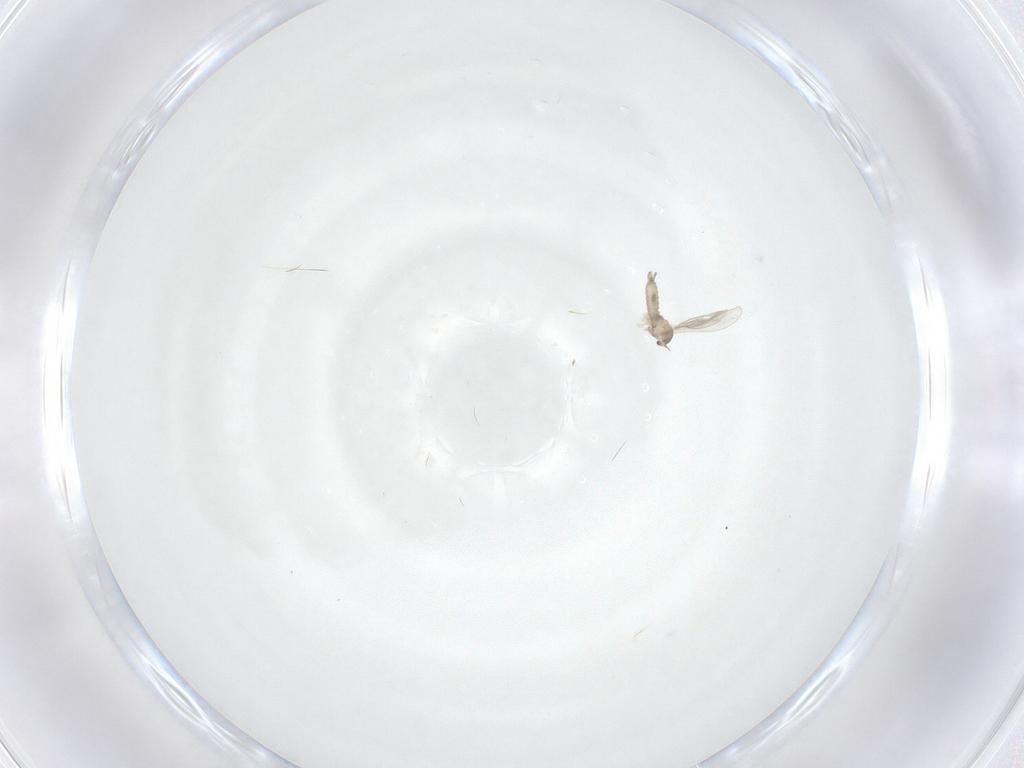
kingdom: Animalia
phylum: Arthropoda
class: Insecta
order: Diptera
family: Cecidomyiidae
